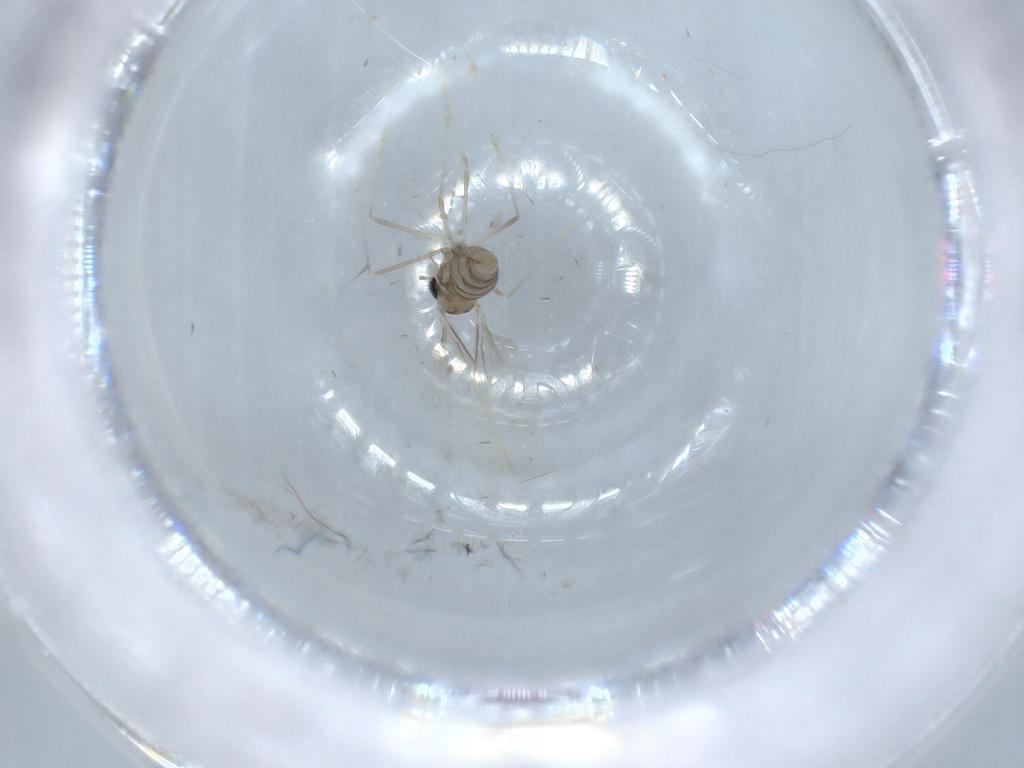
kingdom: Animalia
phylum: Arthropoda
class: Insecta
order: Diptera
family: Cecidomyiidae
